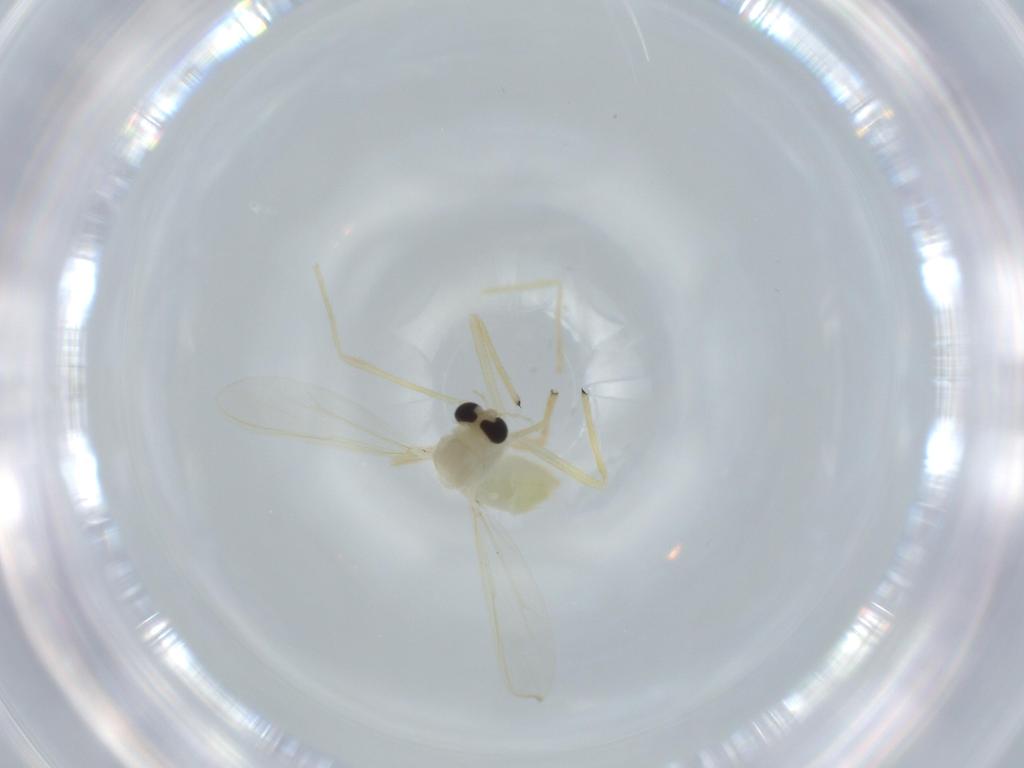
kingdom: Animalia
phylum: Arthropoda
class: Insecta
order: Diptera
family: Chironomidae
